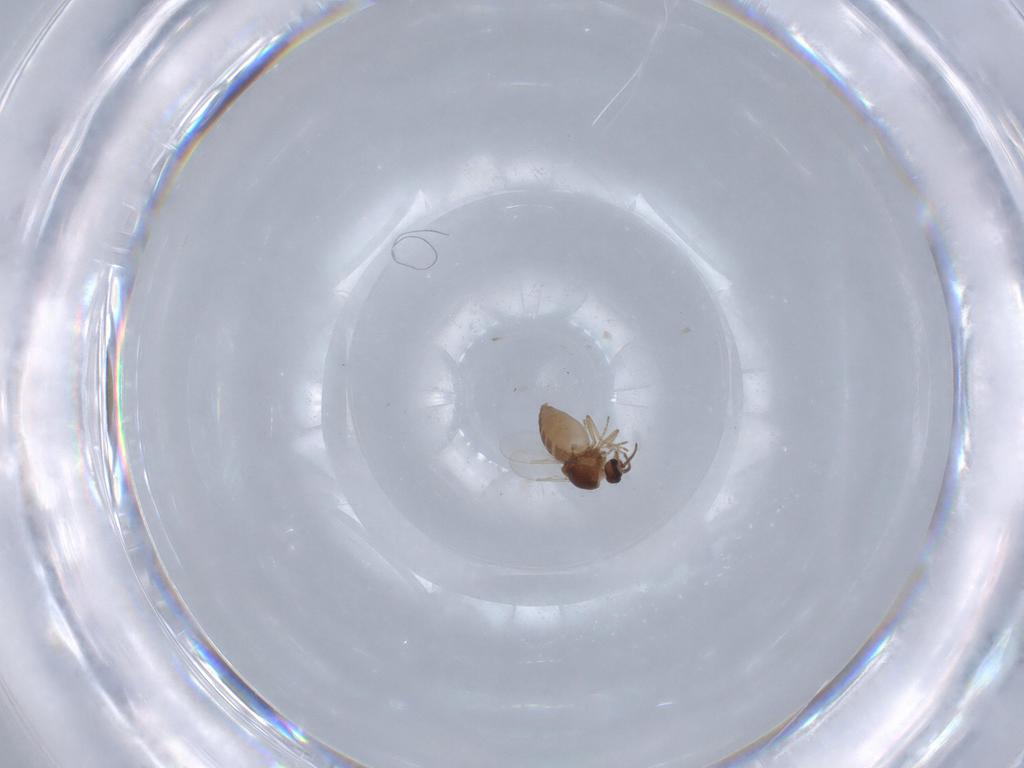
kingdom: Animalia
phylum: Arthropoda
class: Insecta
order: Diptera
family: Ceratopogonidae
